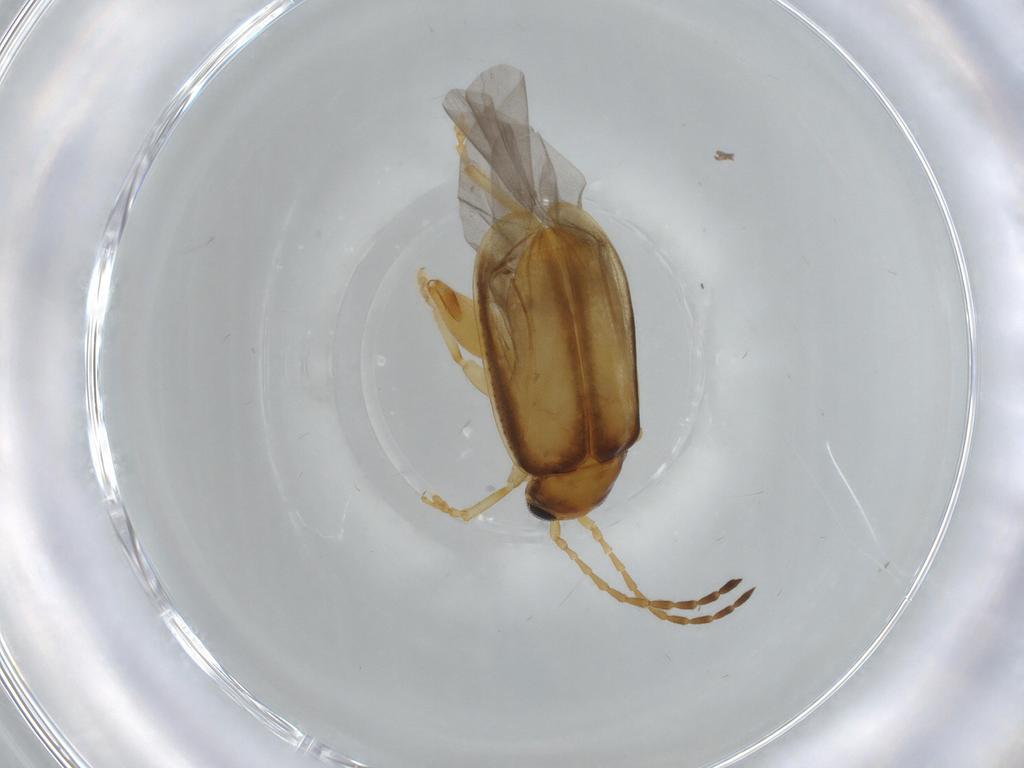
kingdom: Animalia
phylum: Arthropoda
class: Insecta
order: Coleoptera
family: Chrysomelidae
